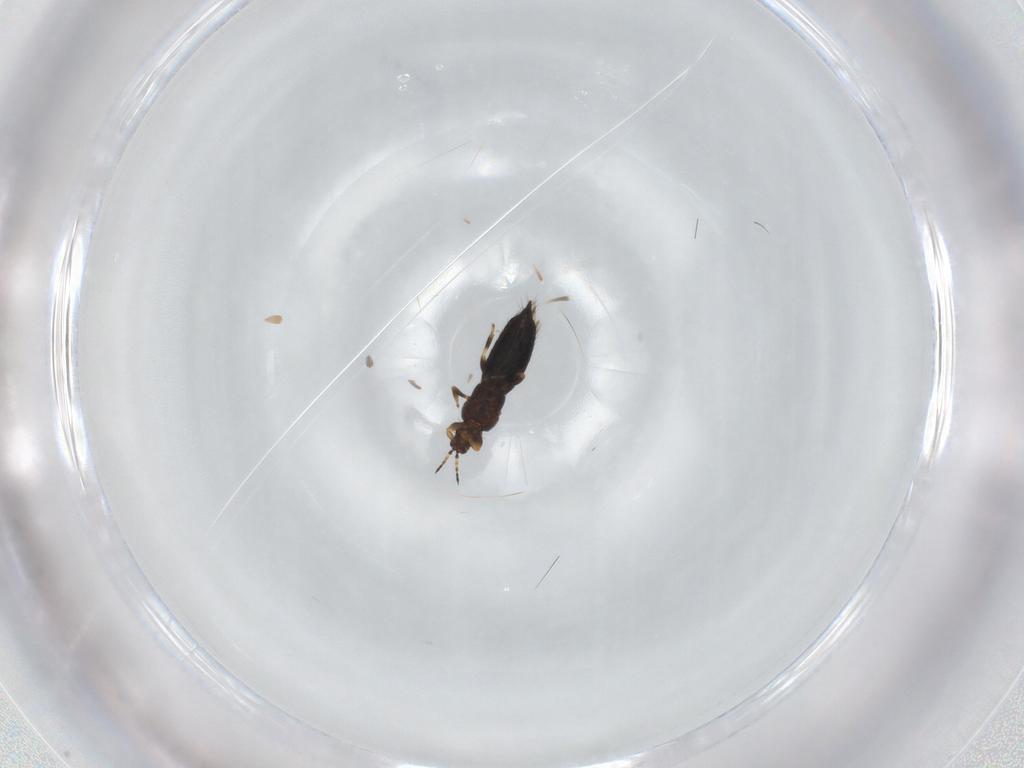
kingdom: Animalia
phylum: Arthropoda
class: Insecta
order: Thysanoptera
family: Thripidae
